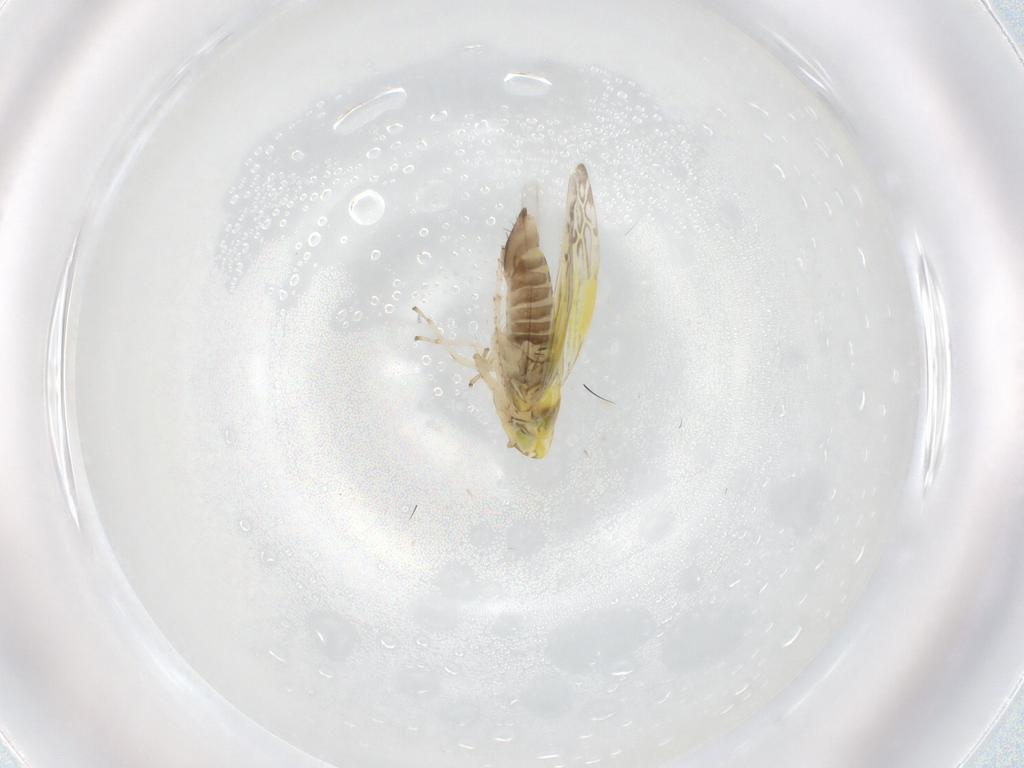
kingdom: Animalia
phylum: Arthropoda
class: Insecta
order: Hemiptera
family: Cicadellidae
